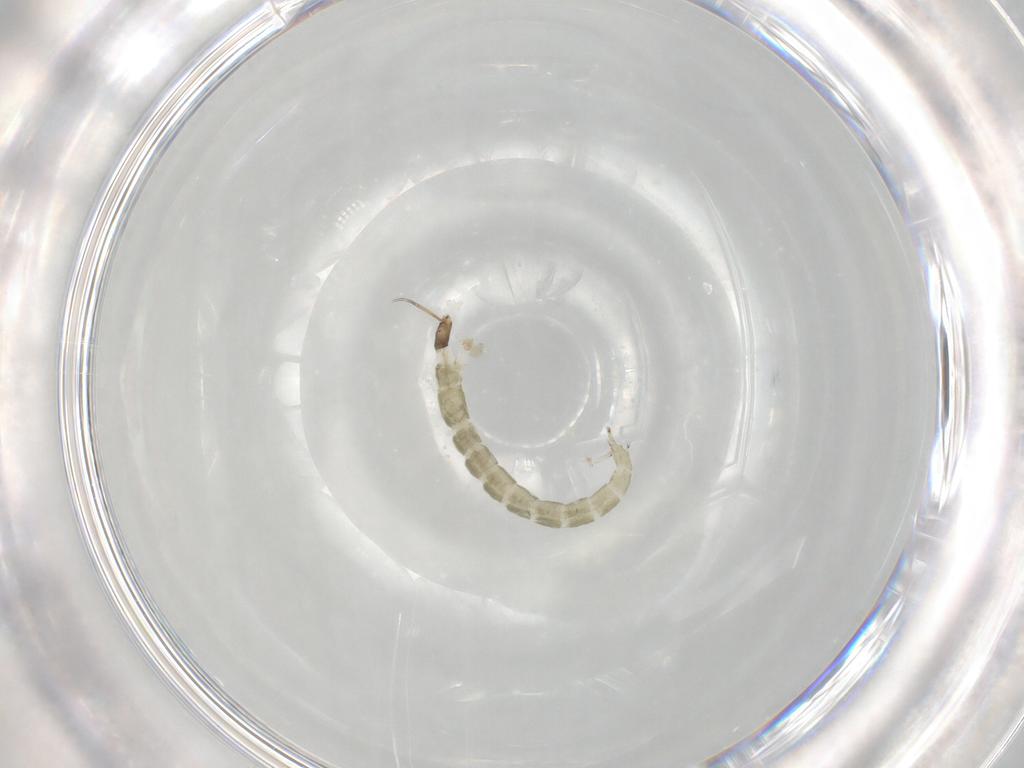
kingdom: Animalia
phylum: Arthropoda
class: Insecta
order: Diptera
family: Chironomidae
